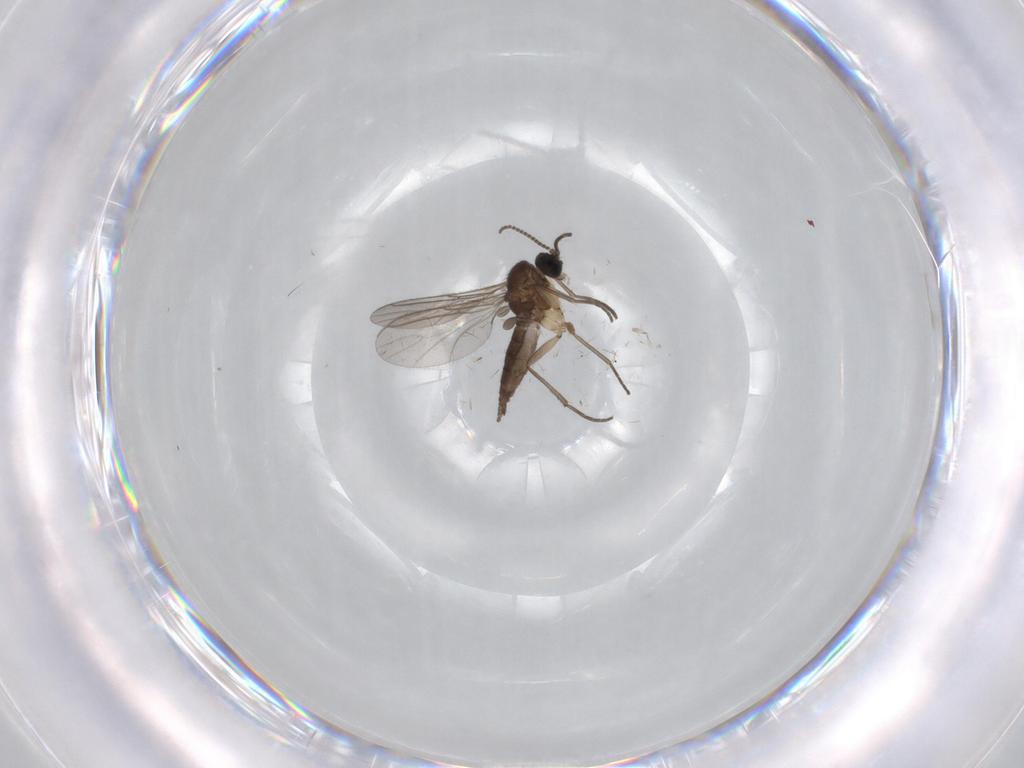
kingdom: Animalia
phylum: Arthropoda
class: Insecta
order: Diptera
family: Sciaridae
